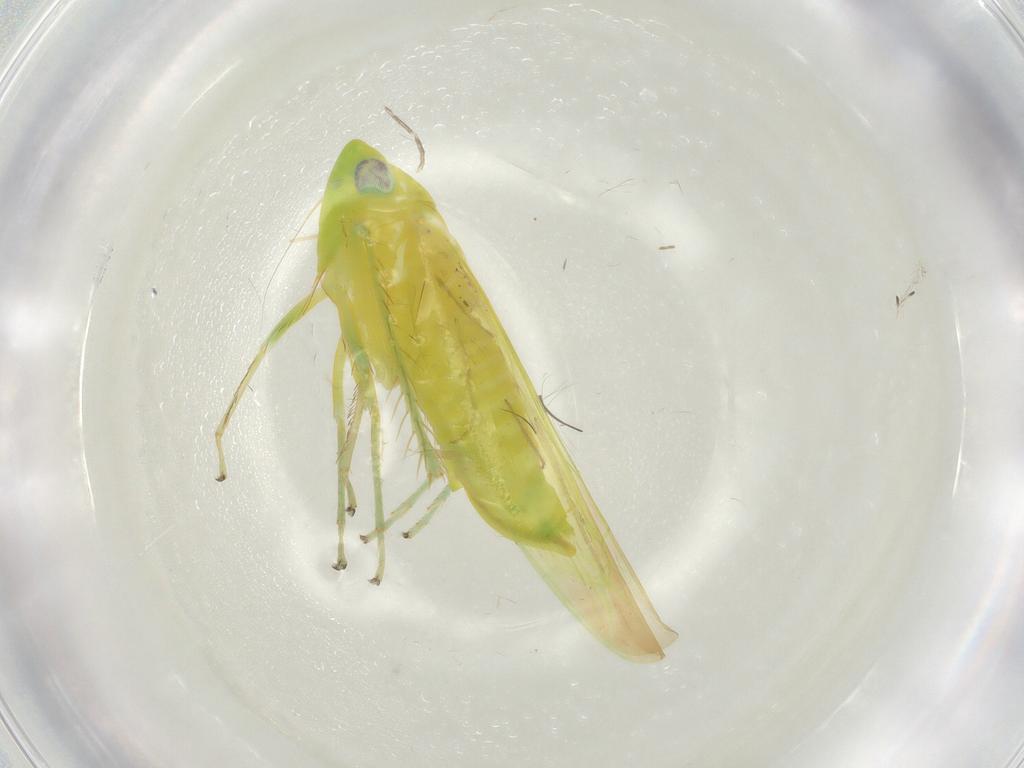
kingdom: Animalia
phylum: Arthropoda
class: Insecta
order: Hemiptera
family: Cicadellidae
